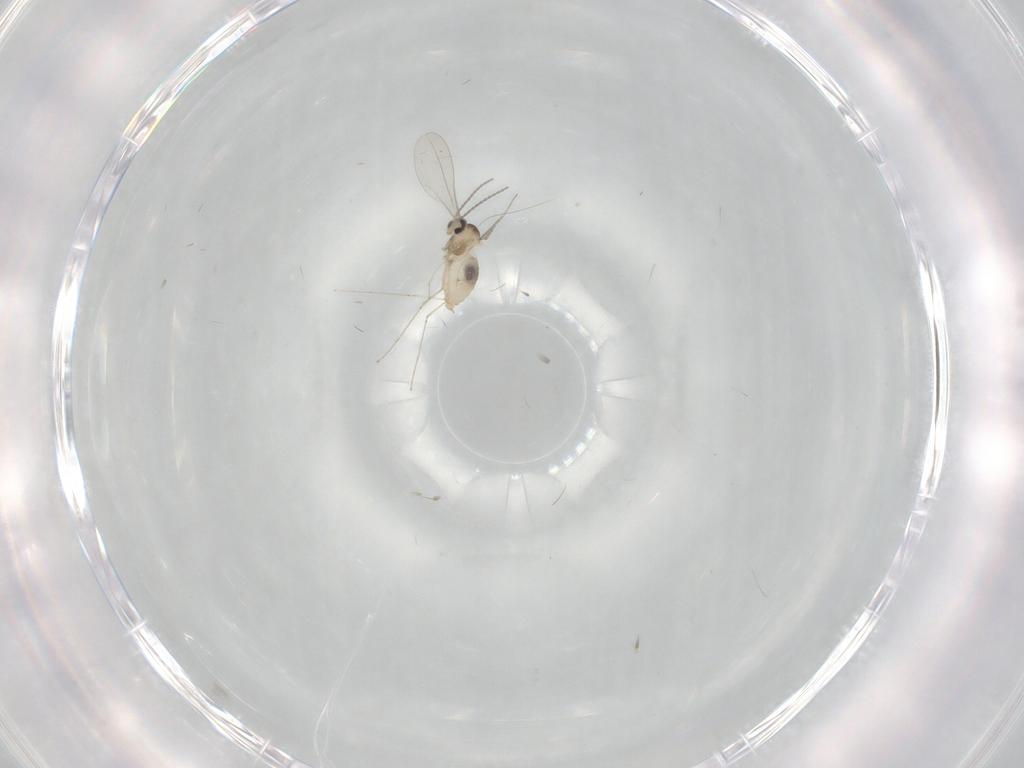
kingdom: Animalia
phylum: Arthropoda
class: Insecta
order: Diptera
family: Cecidomyiidae
